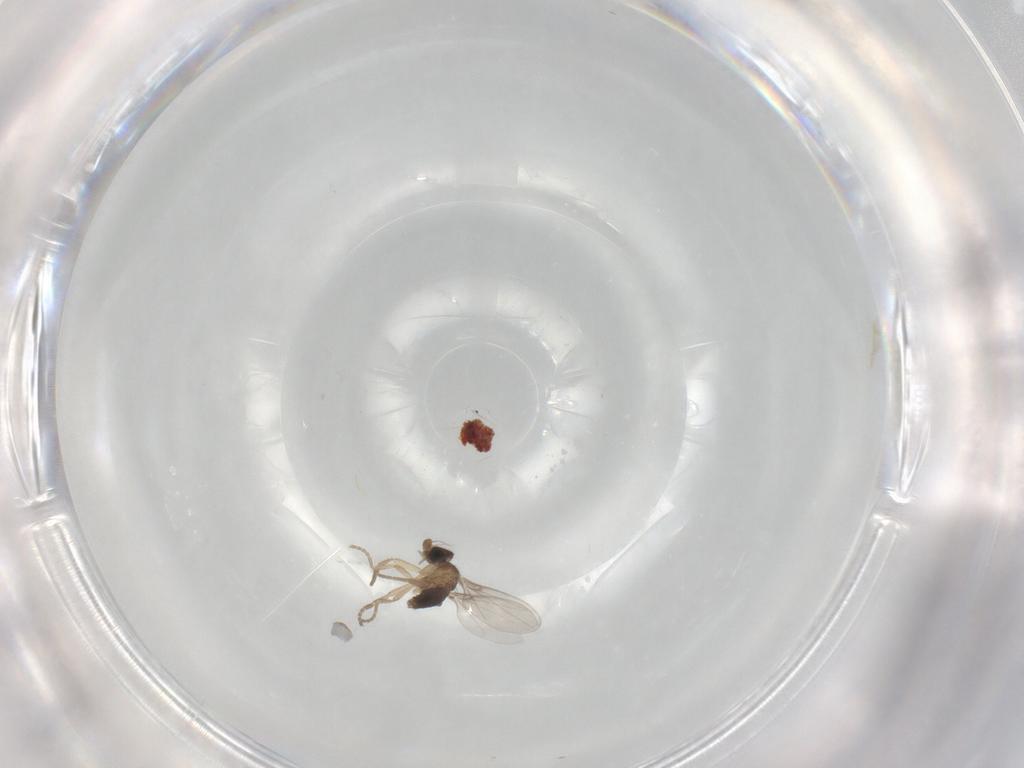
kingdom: Animalia
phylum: Arthropoda
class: Insecta
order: Diptera
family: Phoridae
